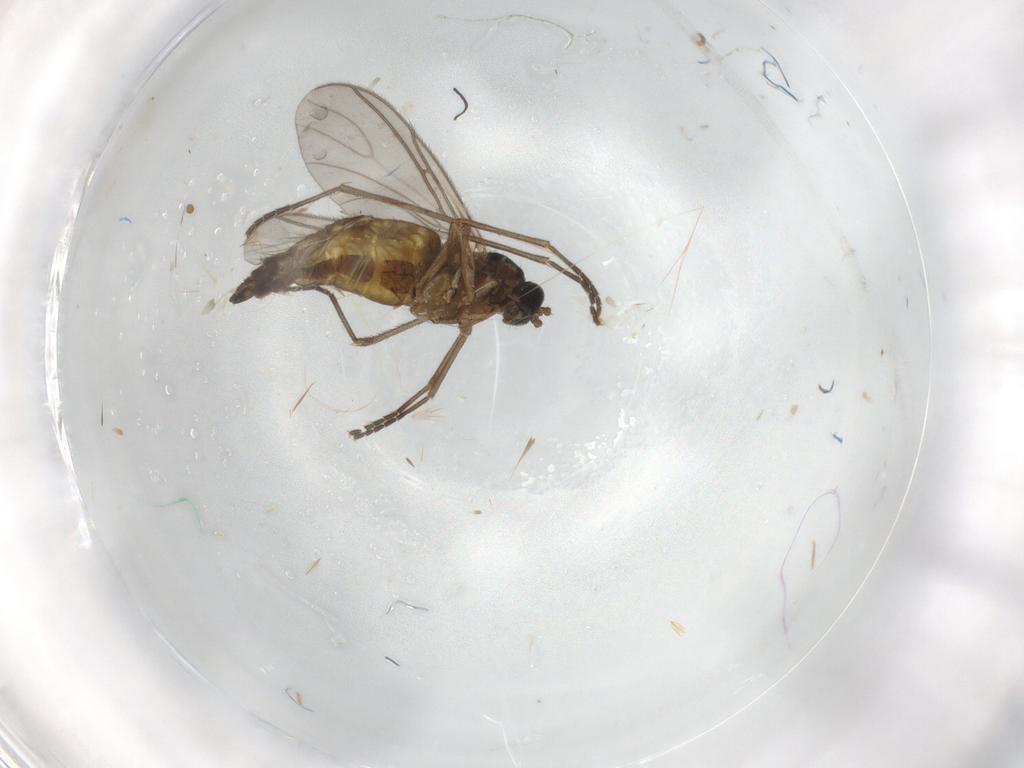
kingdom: Animalia
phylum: Arthropoda
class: Insecta
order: Diptera
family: Sciaridae
